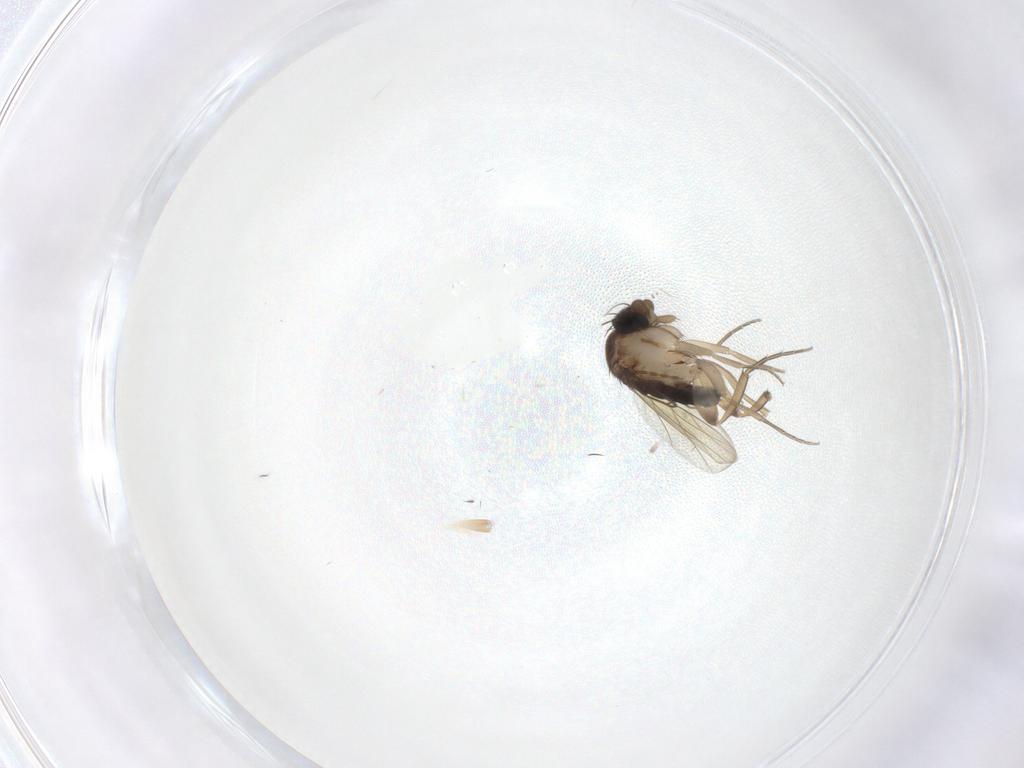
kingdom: Animalia
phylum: Arthropoda
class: Insecta
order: Diptera
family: Phoridae
